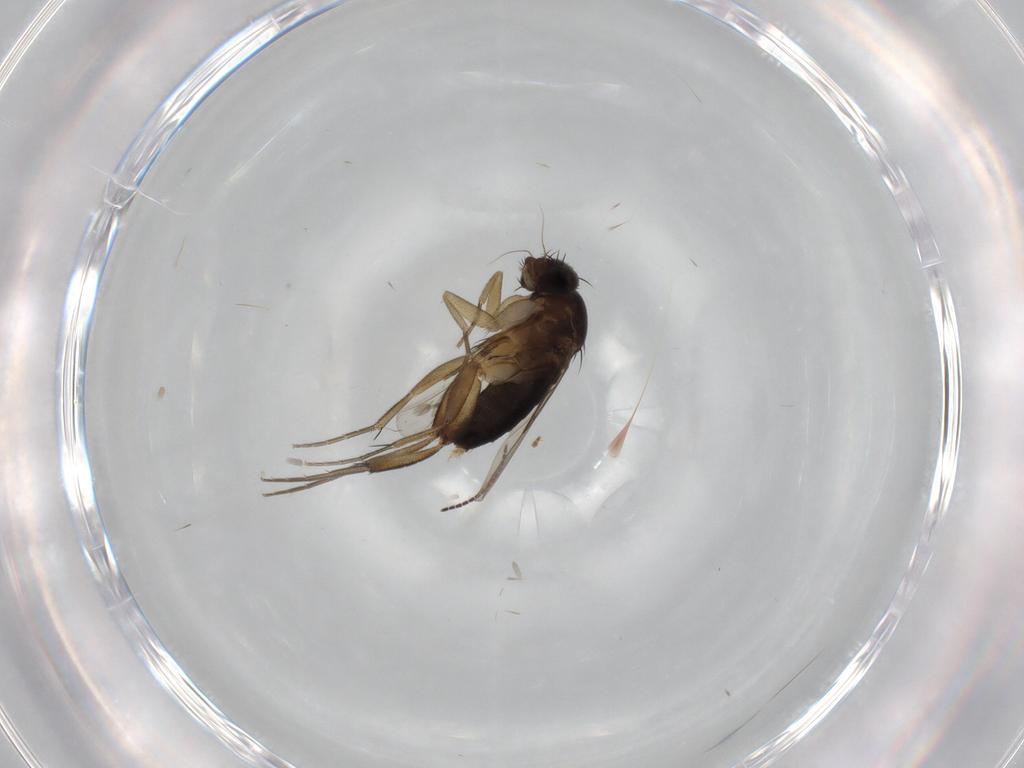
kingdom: Animalia
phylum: Arthropoda
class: Insecta
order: Diptera
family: Phoridae
